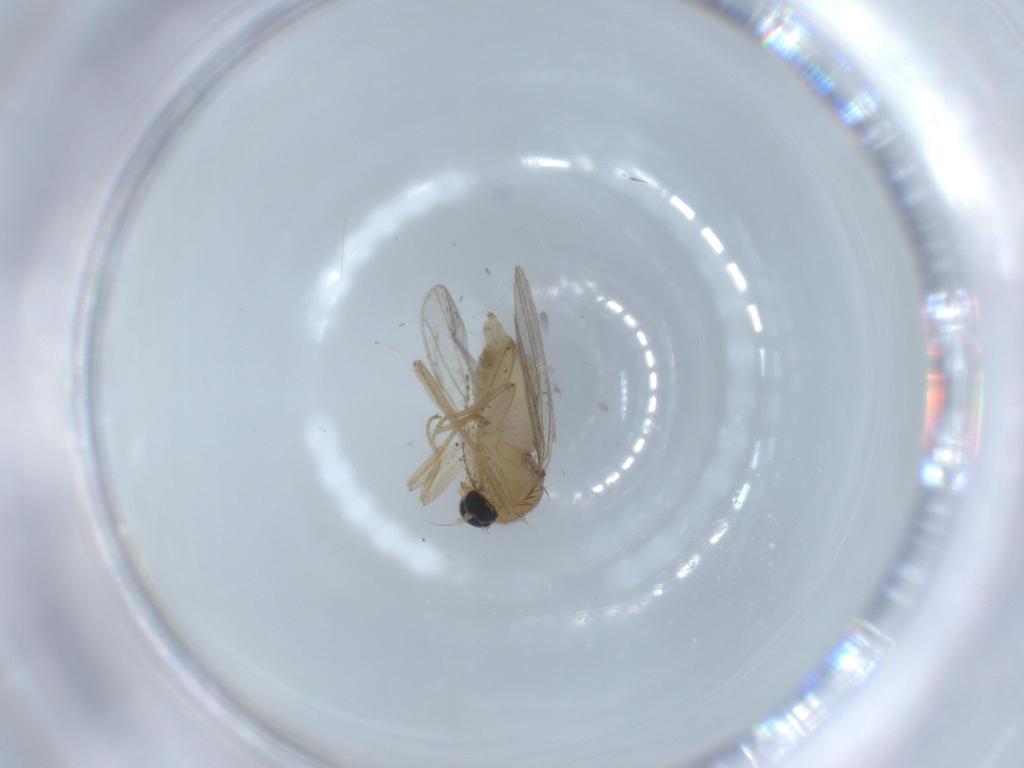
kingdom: Animalia
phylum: Arthropoda
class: Insecta
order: Diptera
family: Hybotidae
